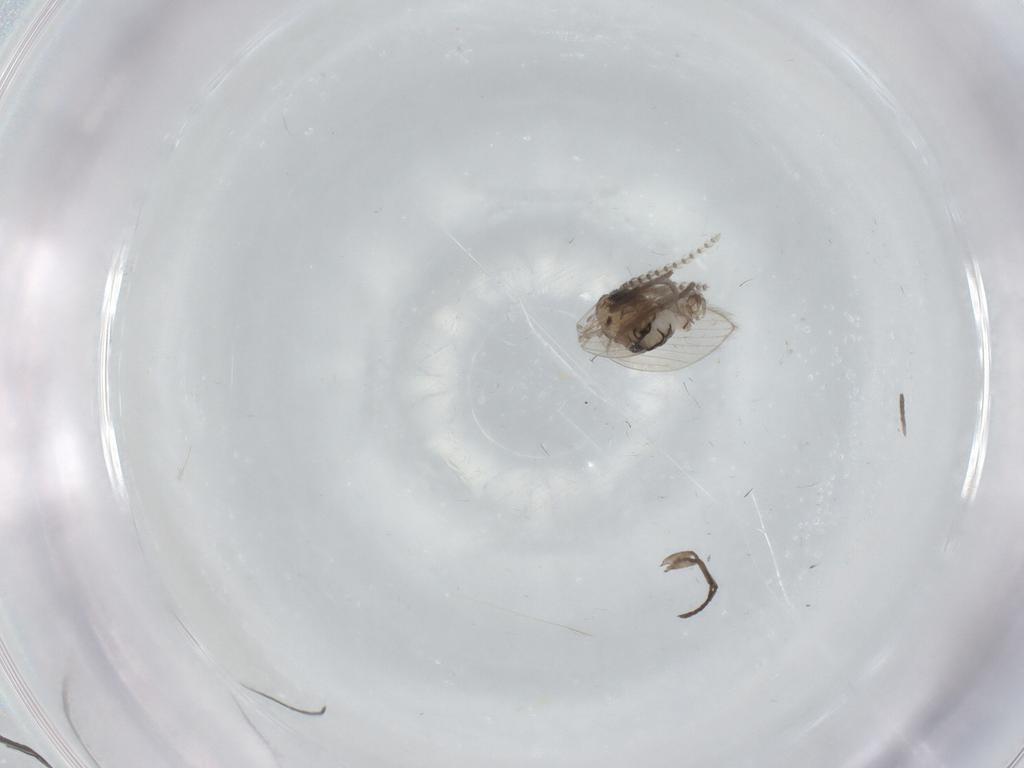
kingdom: Animalia
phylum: Arthropoda
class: Insecta
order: Diptera
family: Psychodidae
